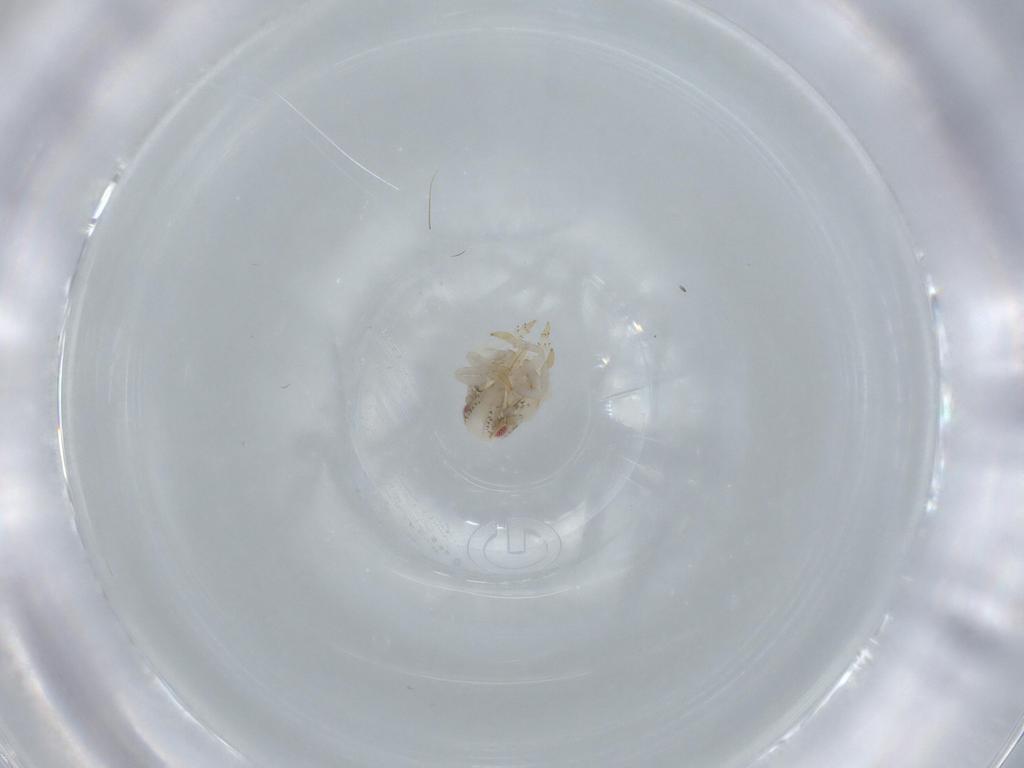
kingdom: Animalia
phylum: Arthropoda
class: Insecta
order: Hemiptera
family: Acanaloniidae
